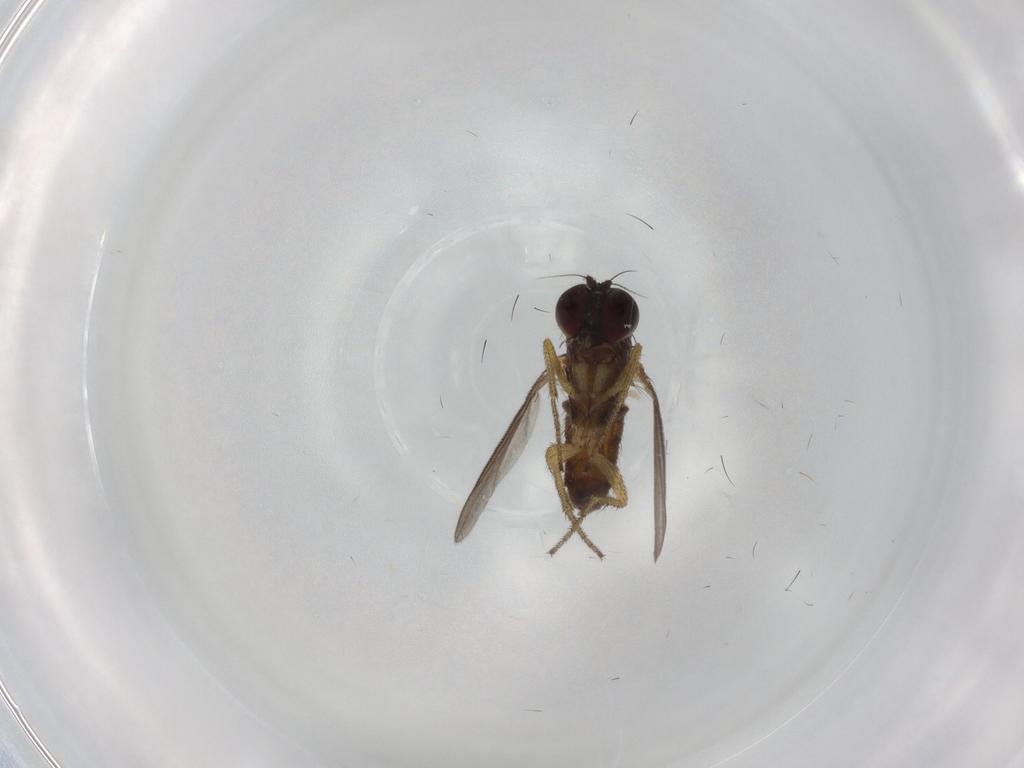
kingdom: Animalia
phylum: Arthropoda
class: Insecta
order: Diptera
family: Dolichopodidae
